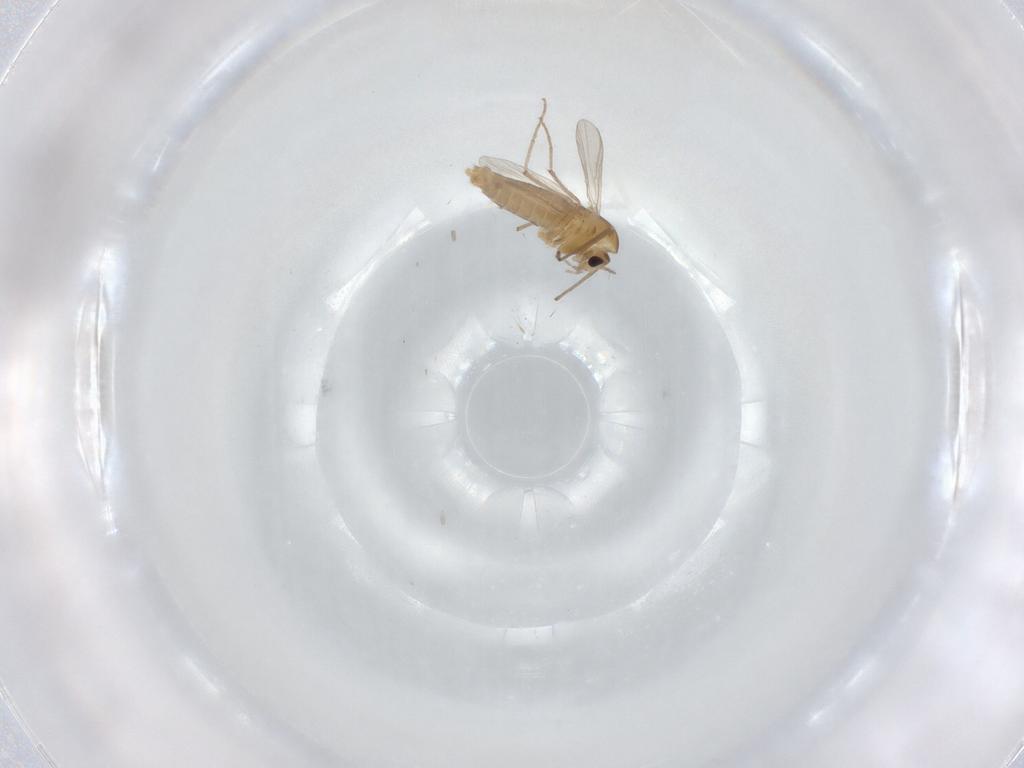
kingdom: Animalia
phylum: Arthropoda
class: Insecta
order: Diptera
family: Chironomidae
